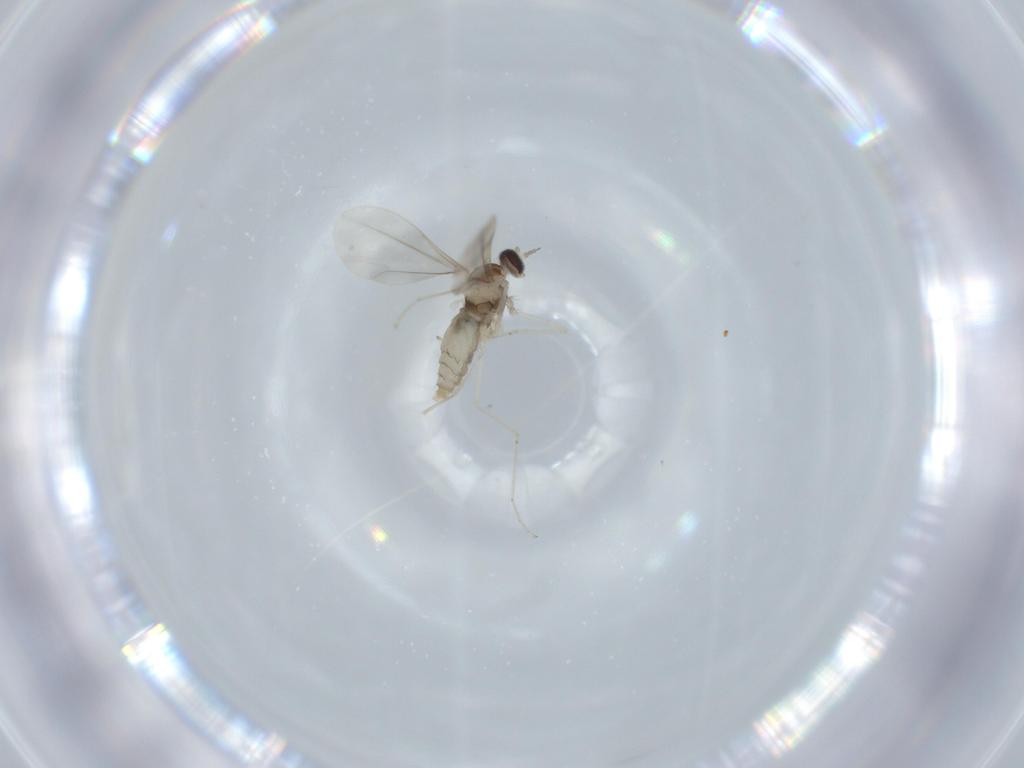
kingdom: Animalia
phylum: Arthropoda
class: Insecta
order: Diptera
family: Cecidomyiidae
